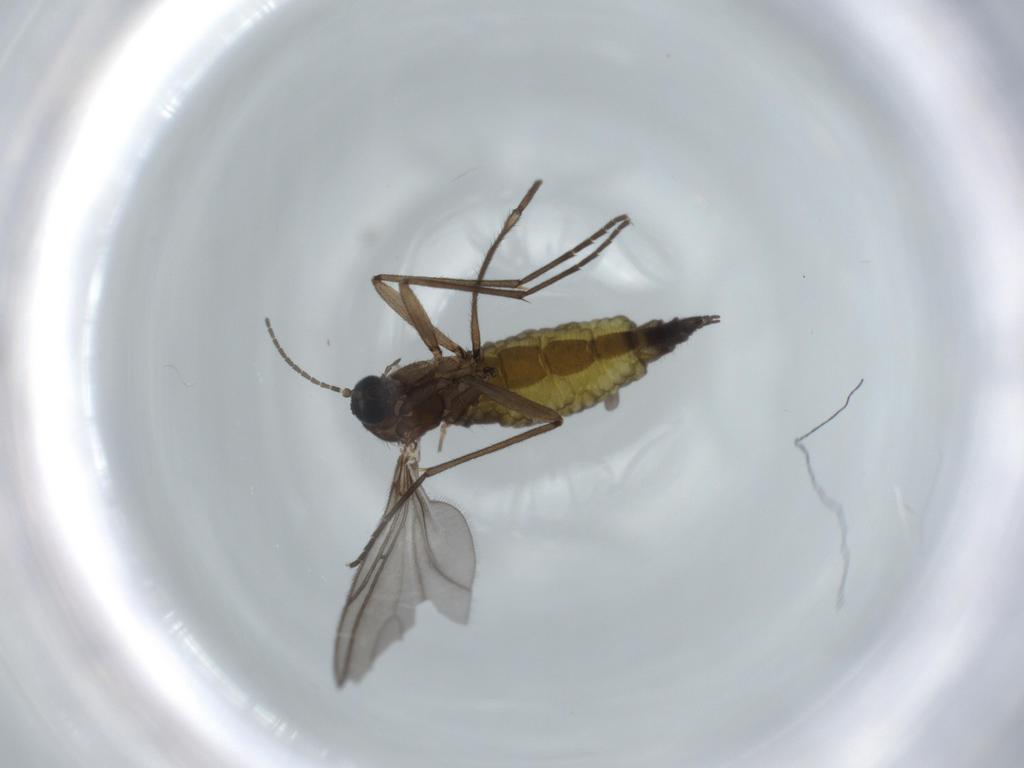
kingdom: Animalia
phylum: Arthropoda
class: Insecta
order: Diptera
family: Sciaridae
